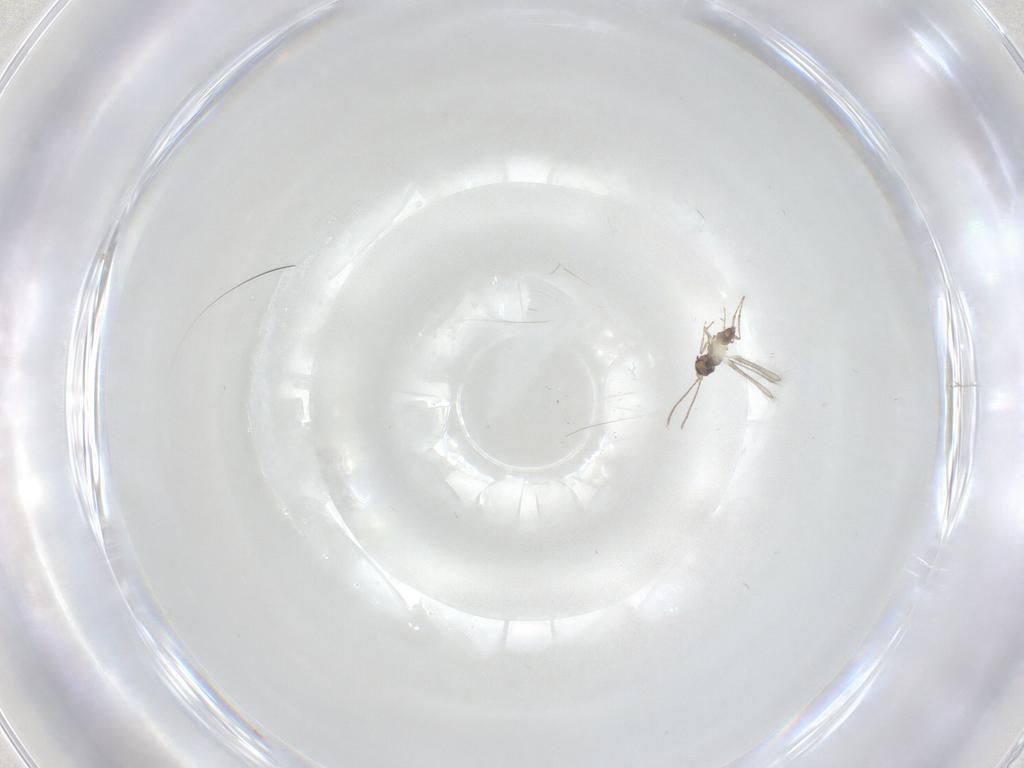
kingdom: Animalia
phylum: Arthropoda
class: Insecta
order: Hymenoptera
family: Mymaridae
